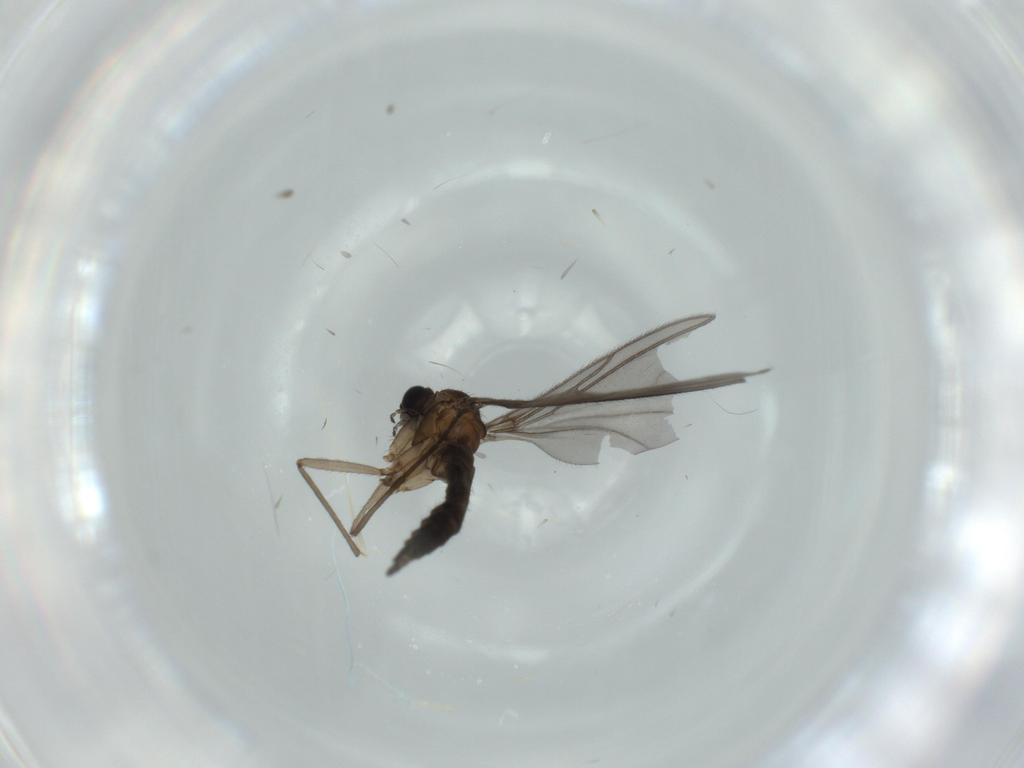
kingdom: Animalia
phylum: Arthropoda
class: Insecta
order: Diptera
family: Sciaridae
